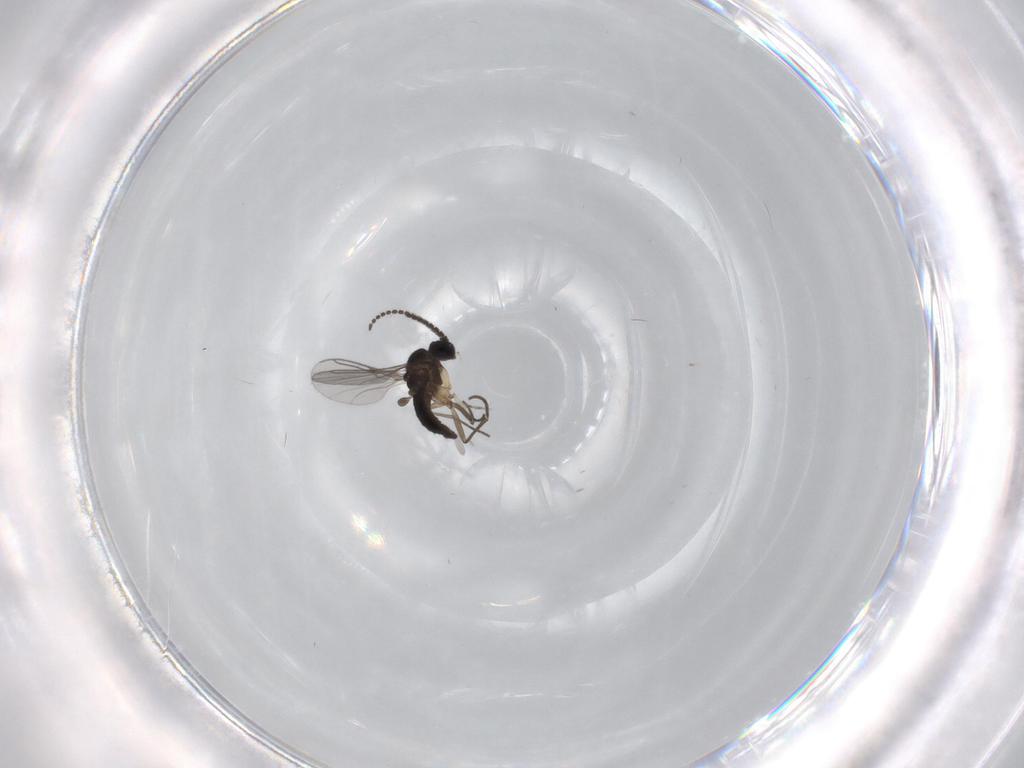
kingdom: Animalia
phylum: Arthropoda
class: Insecta
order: Diptera
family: Sciaridae
